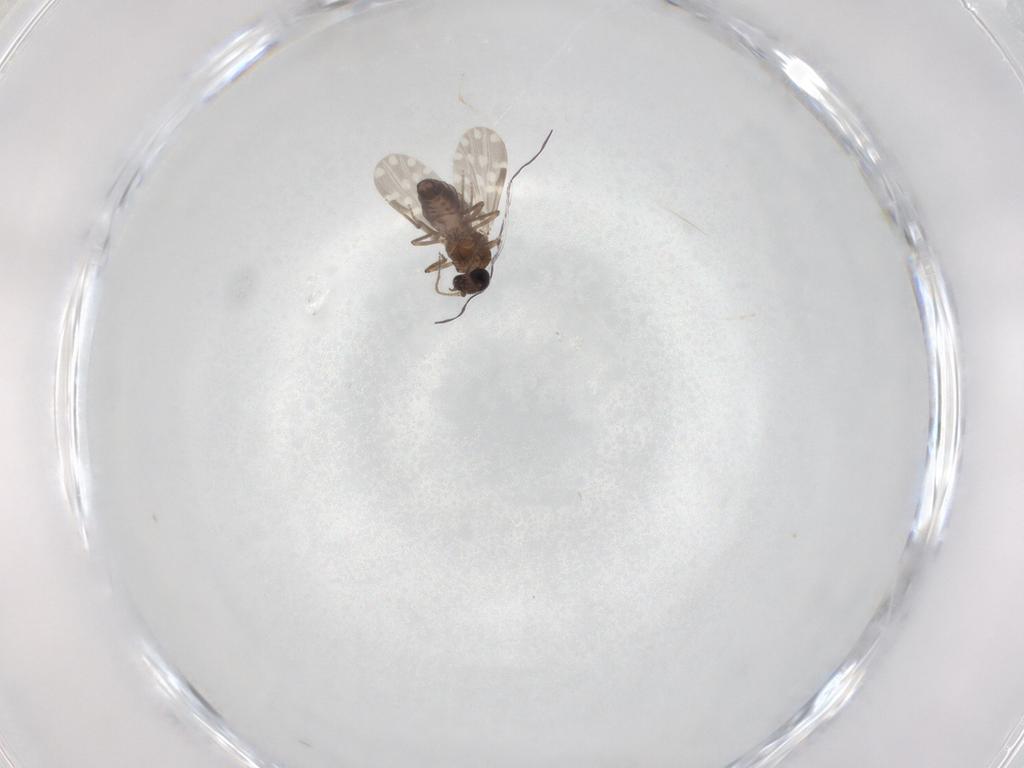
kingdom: Animalia
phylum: Arthropoda
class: Insecta
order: Diptera
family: Ceratopogonidae
